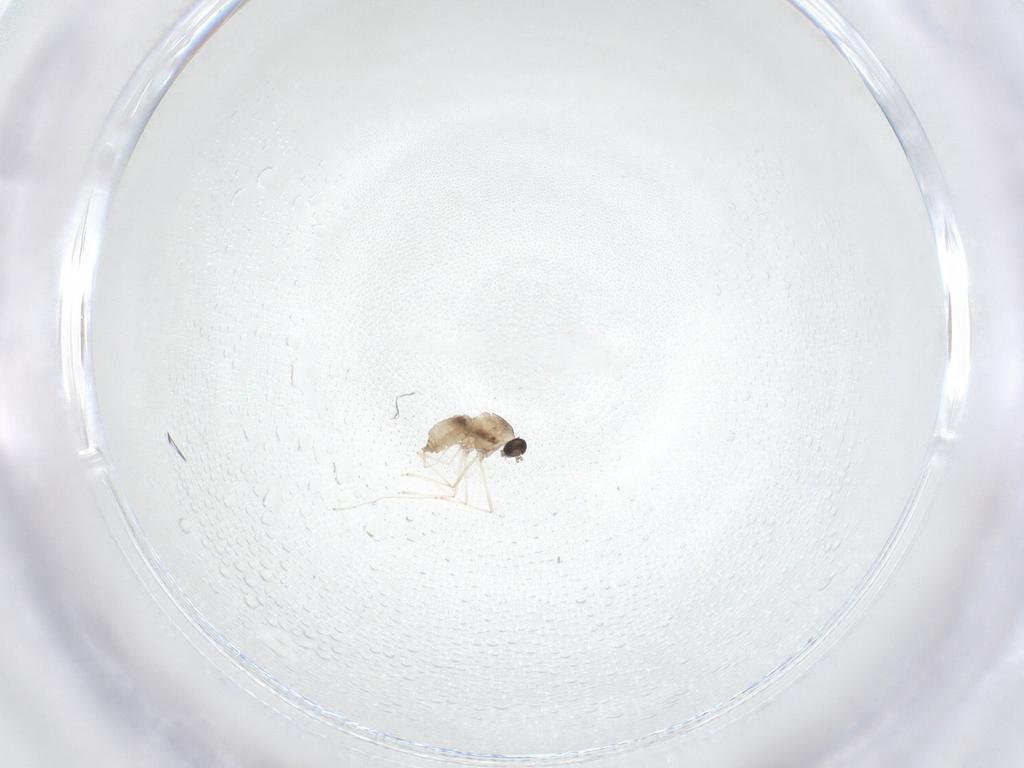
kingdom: Animalia
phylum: Arthropoda
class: Insecta
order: Diptera
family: Cecidomyiidae
